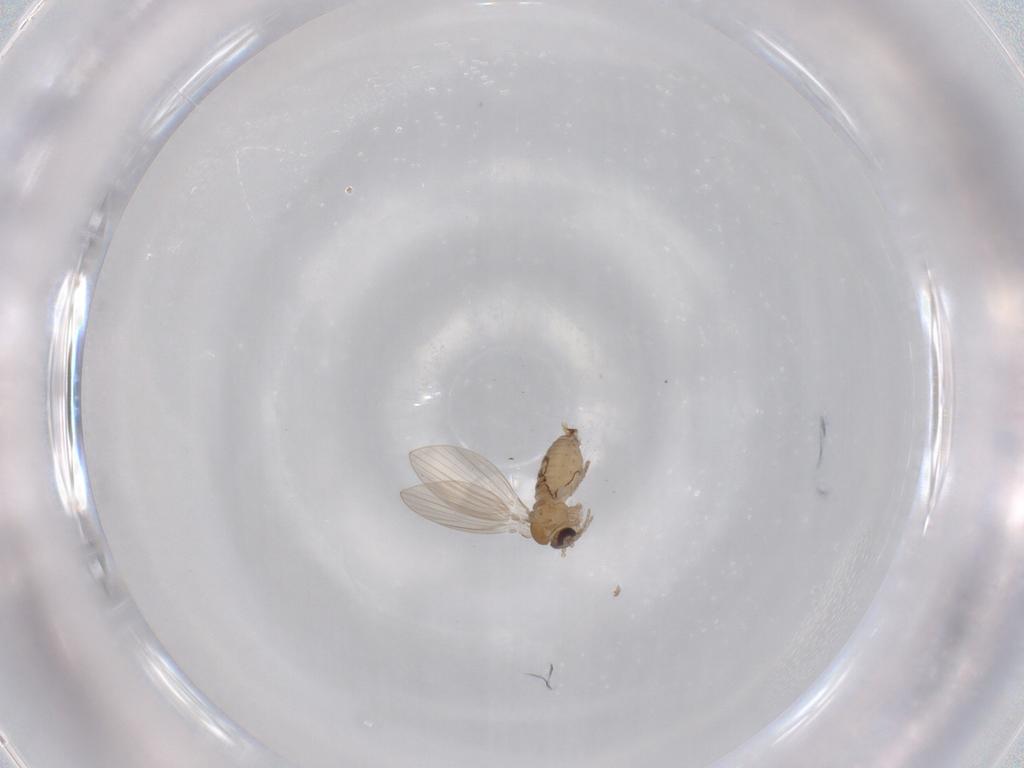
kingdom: Animalia
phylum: Arthropoda
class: Insecta
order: Diptera
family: Psychodidae
